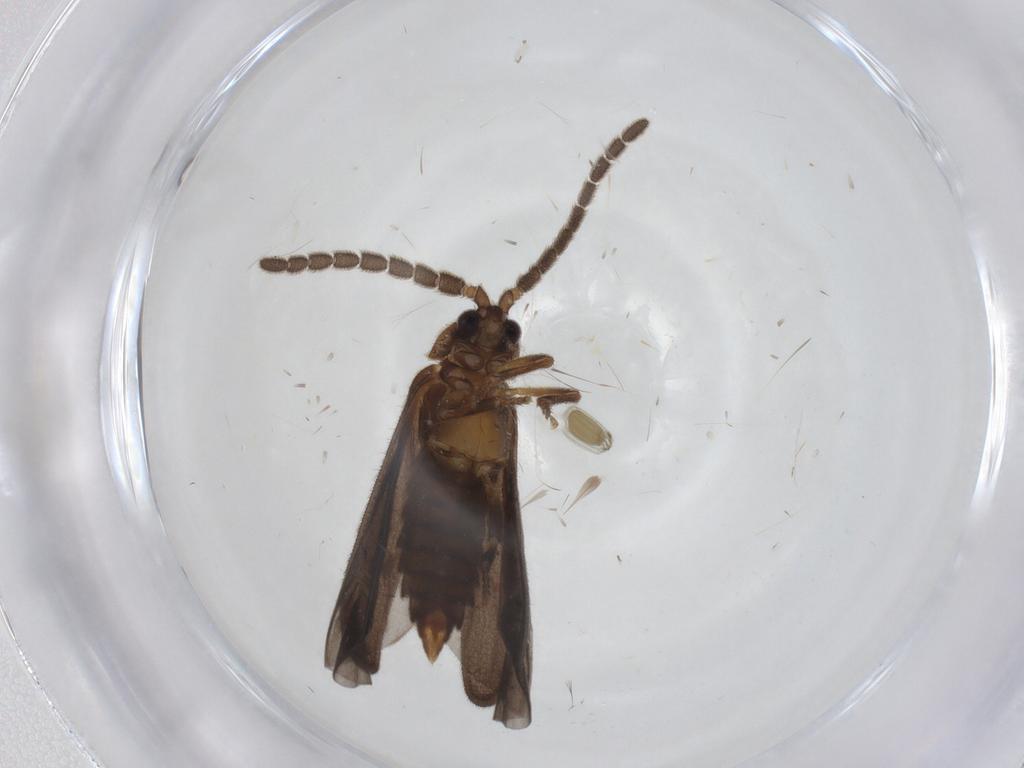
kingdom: Animalia
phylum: Arthropoda
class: Insecta
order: Coleoptera
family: Lycidae
